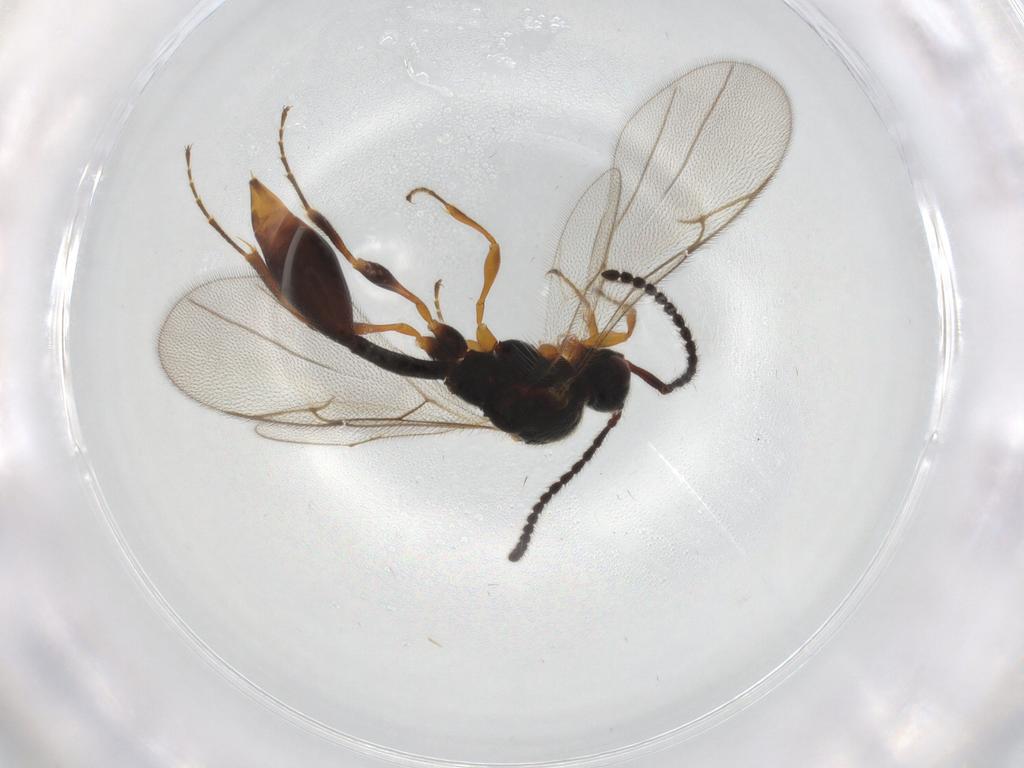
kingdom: Animalia
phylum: Arthropoda
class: Insecta
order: Hymenoptera
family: Diapriidae
